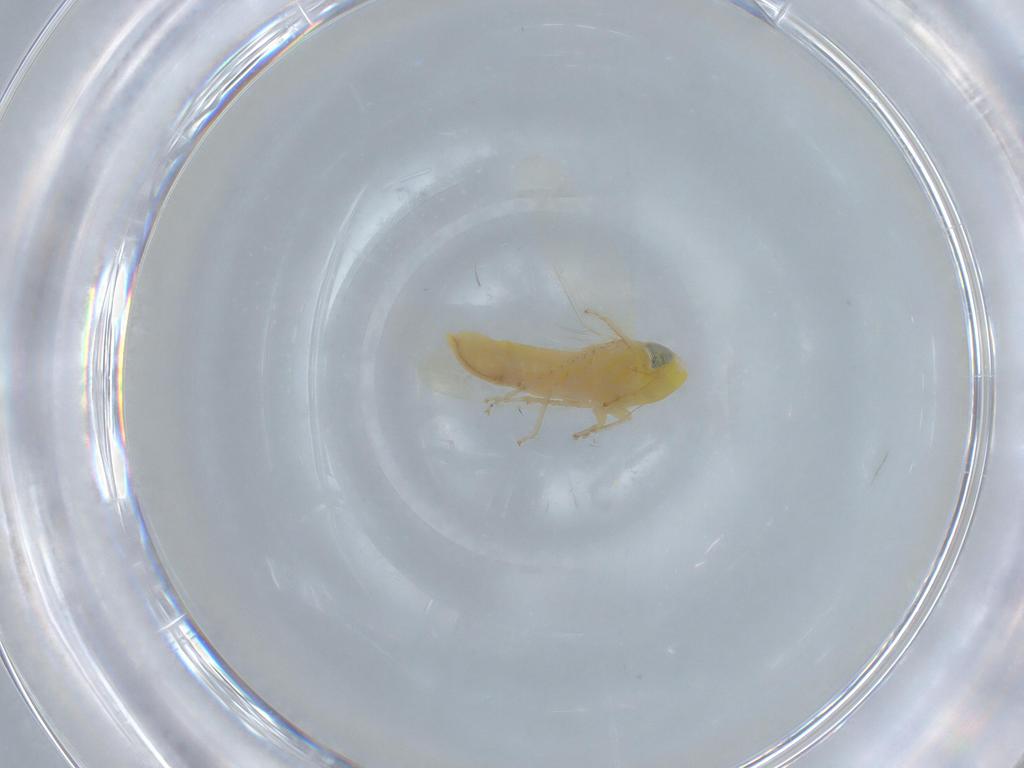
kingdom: Animalia
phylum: Arthropoda
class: Insecta
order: Hemiptera
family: Cicadellidae
